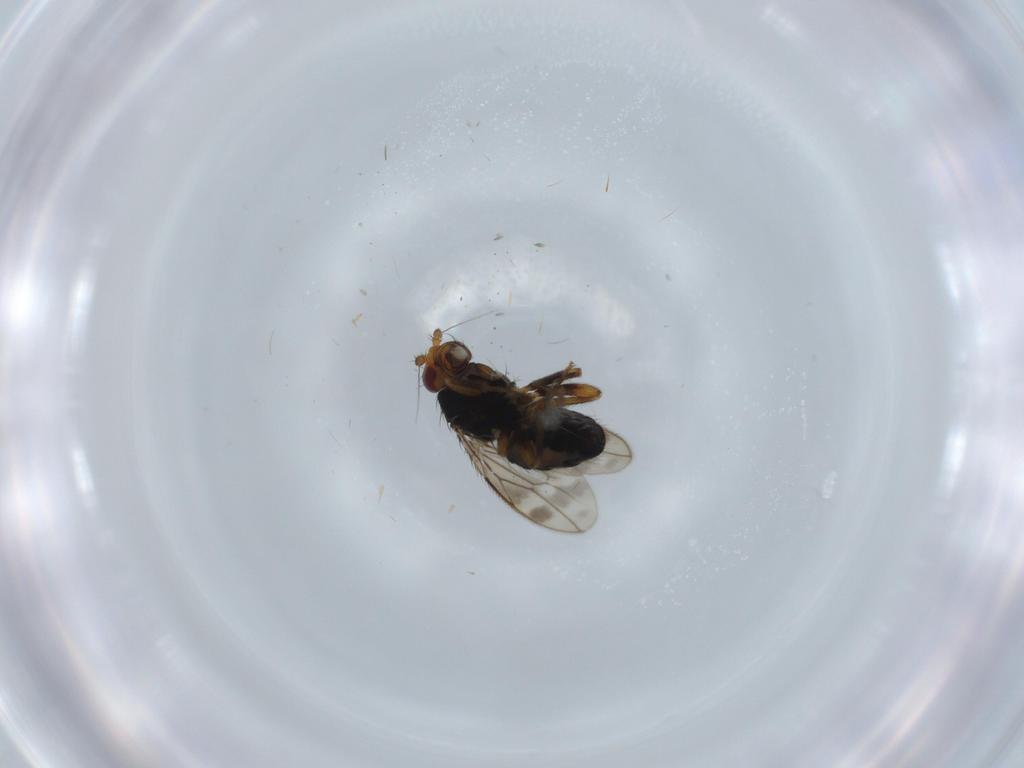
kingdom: Animalia
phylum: Arthropoda
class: Insecta
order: Diptera
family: Sphaeroceridae
